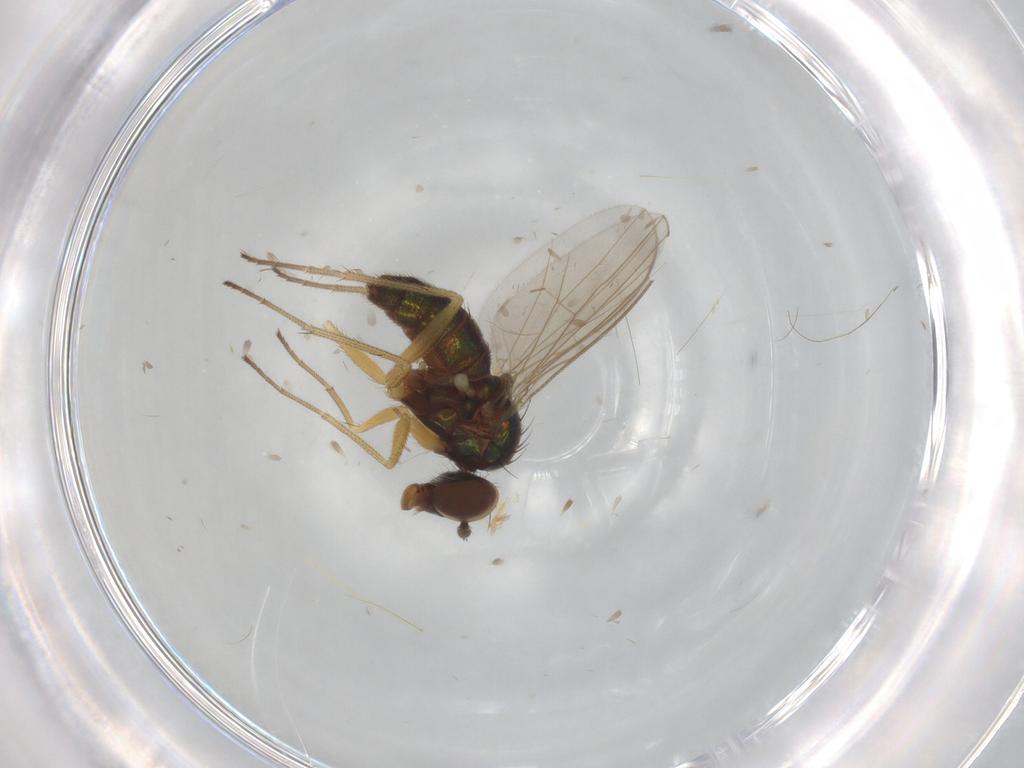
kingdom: Animalia
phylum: Arthropoda
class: Insecta
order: Diptera
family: Dolichopodidae
